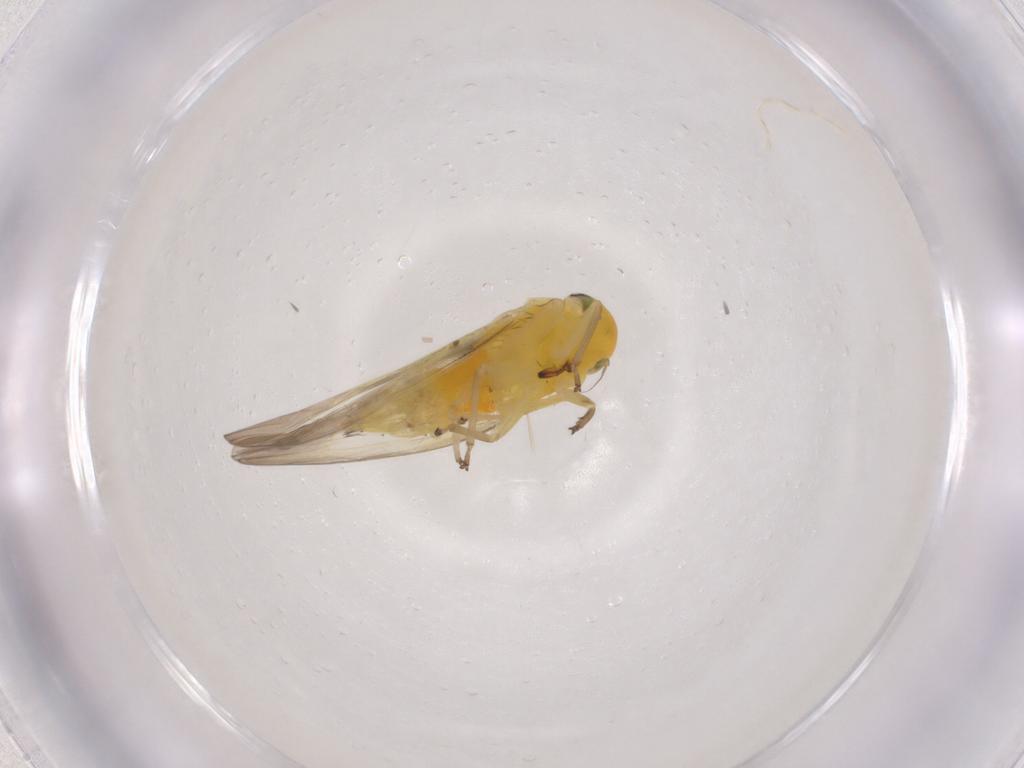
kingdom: Animalia
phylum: Arthropoda
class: Insecta
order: Hemiptera
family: Cicadellidae
